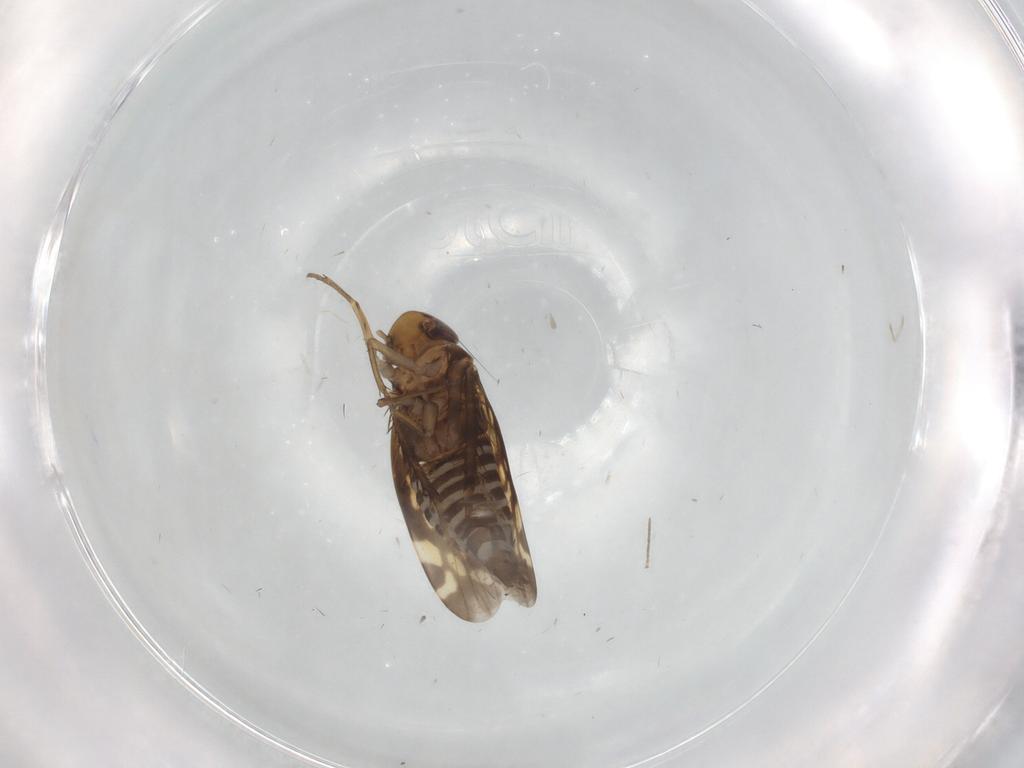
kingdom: Animalia
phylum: Arthropoda
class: Insecta
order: Hemiptera
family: Cicadellidae
